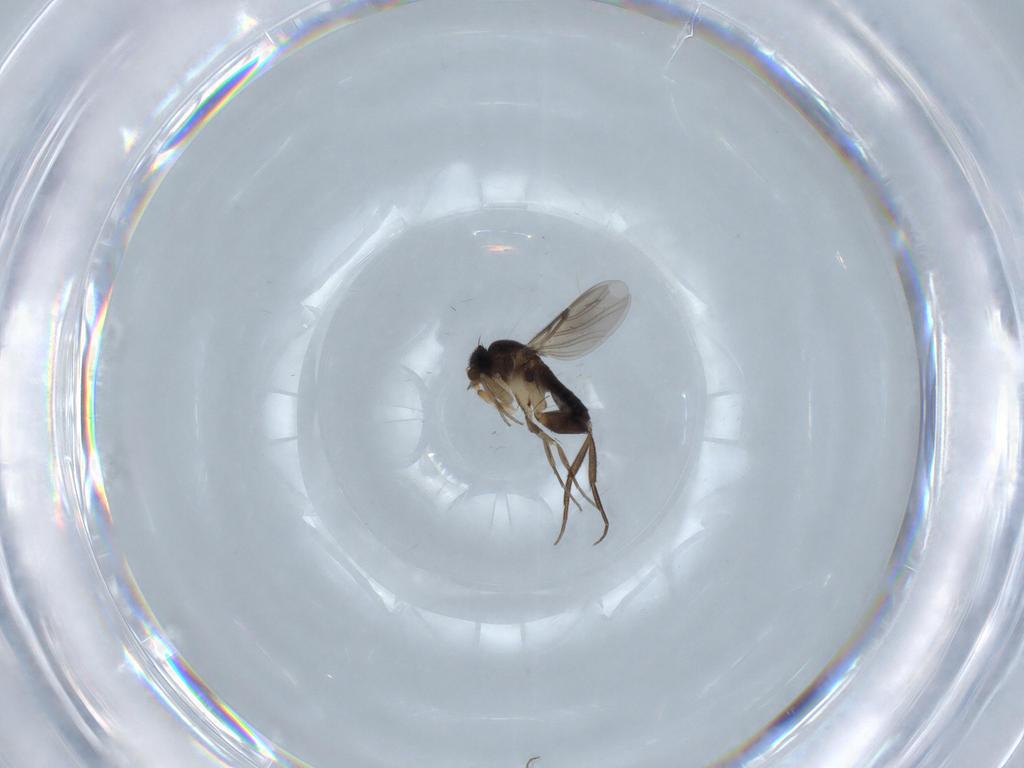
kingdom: Animalia
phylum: Arthropoda
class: Insecta
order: Diptera
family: Phoridae
